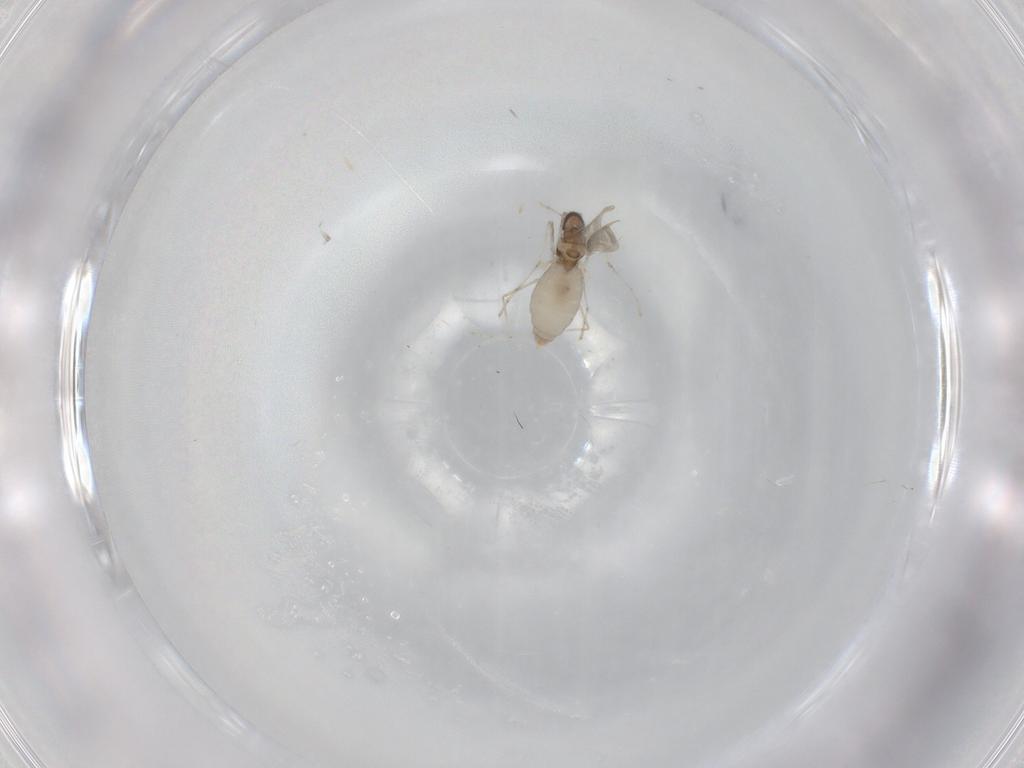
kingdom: Animalia
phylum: Arthropoda
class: Insecta
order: Diptera
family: Cecidomyiidae
